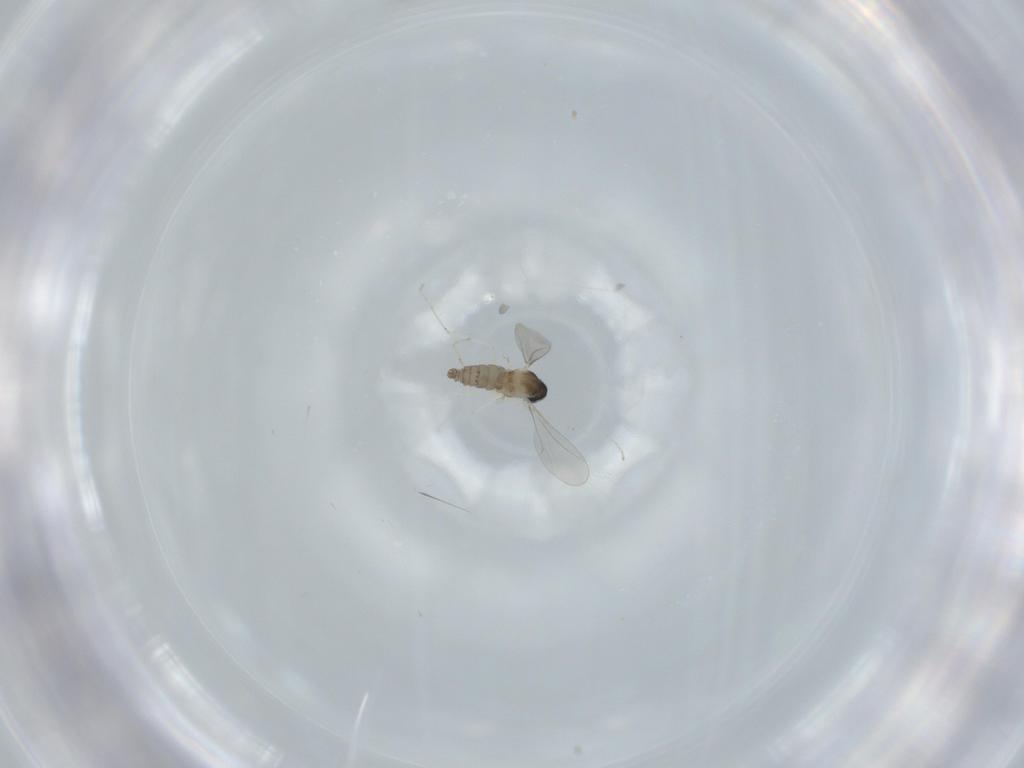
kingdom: Animalia
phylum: Arthropoda
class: Insecta
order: Diptera
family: Cecidomyiidae
